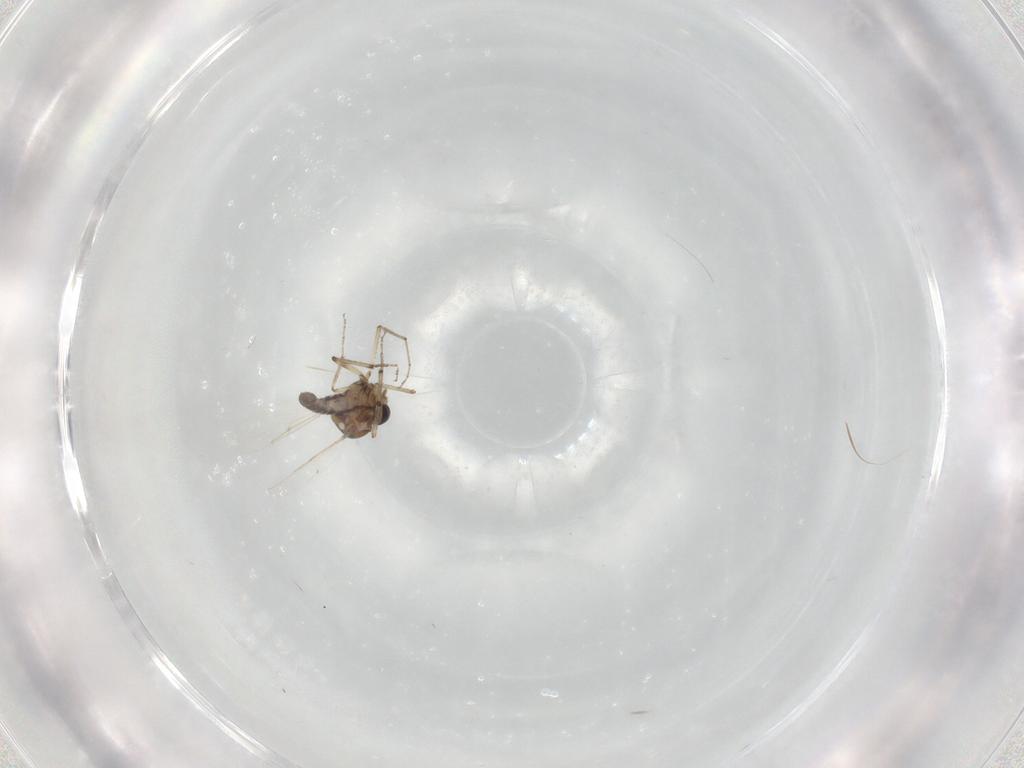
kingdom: Animalia
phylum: Arthropoda
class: Insecta
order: Diptera
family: Ceratopogonidae
